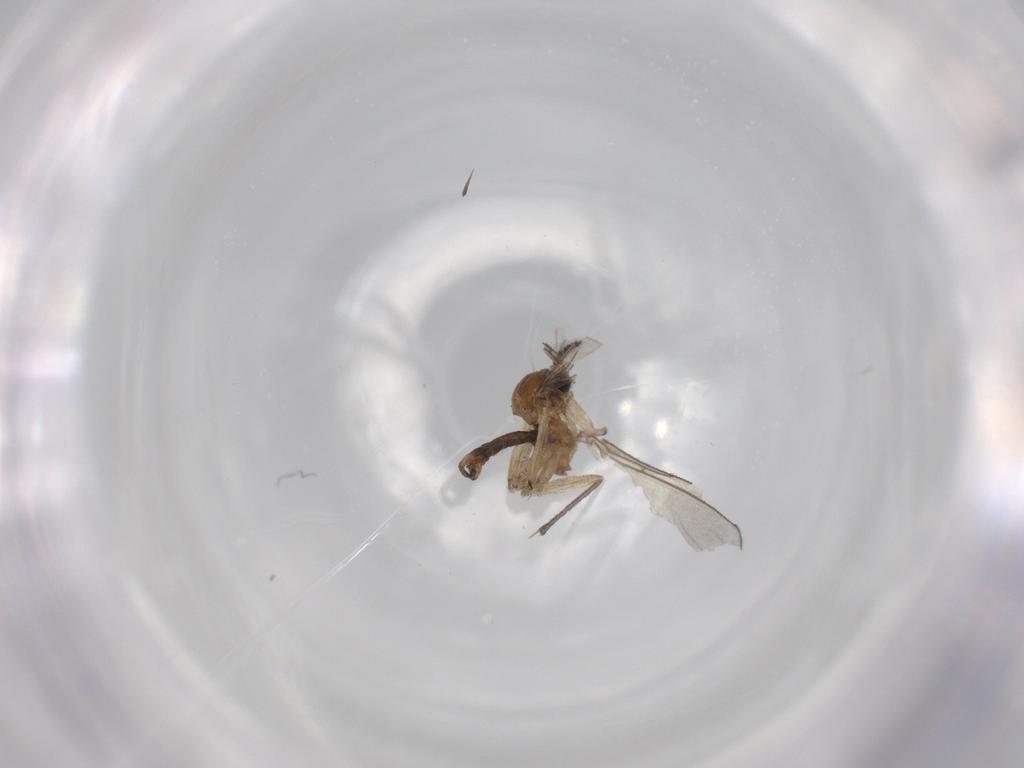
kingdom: Animalia
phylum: Arthropoda
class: Insecta
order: Diptera
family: Sciaridae
